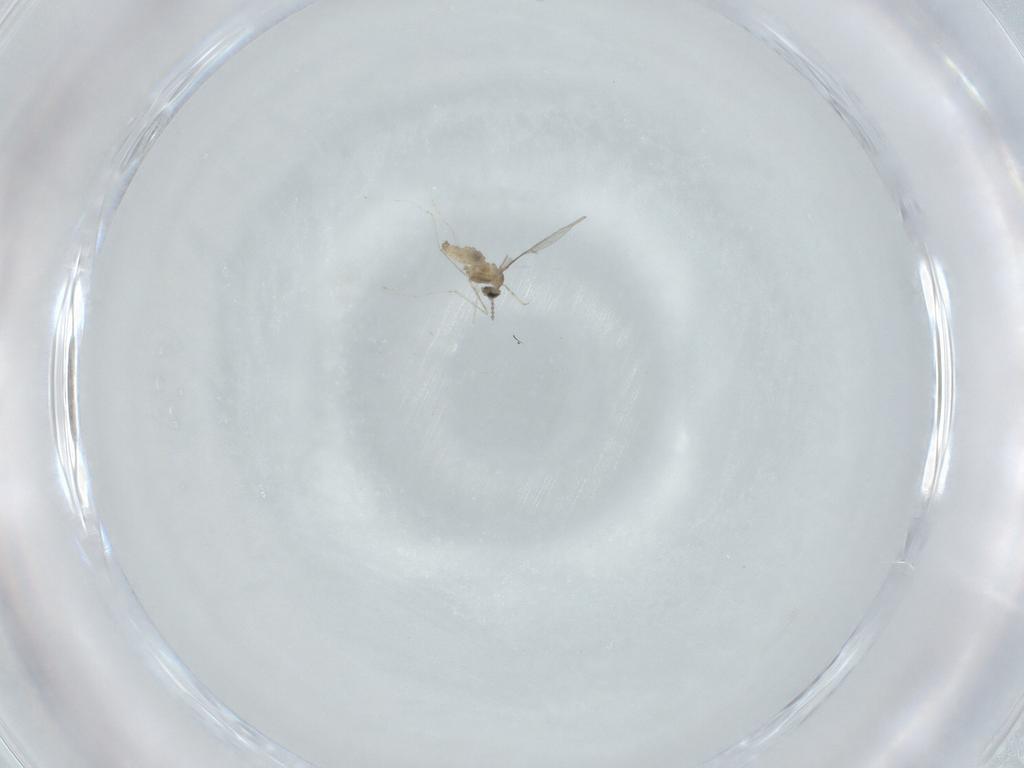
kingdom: Animalia
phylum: Arthropoda
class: Insecta
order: Diptera
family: Cecidomyiidae
